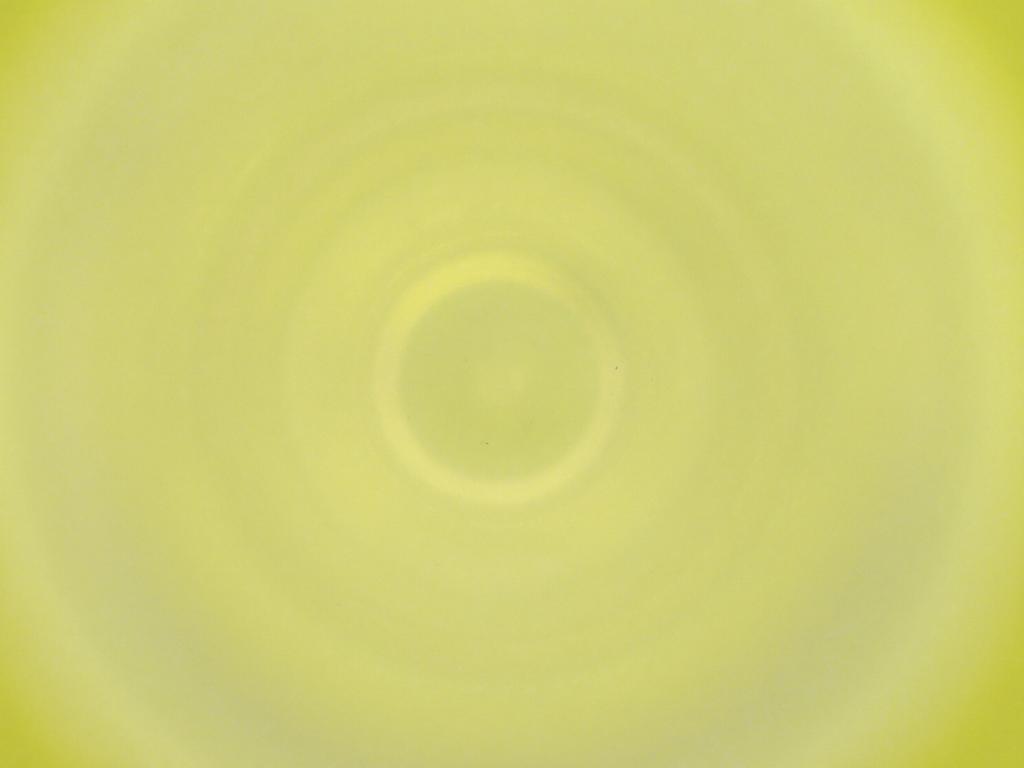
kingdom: Animalia
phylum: Arthropoda
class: Insecta
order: Diptera
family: Cecidomyiidae
